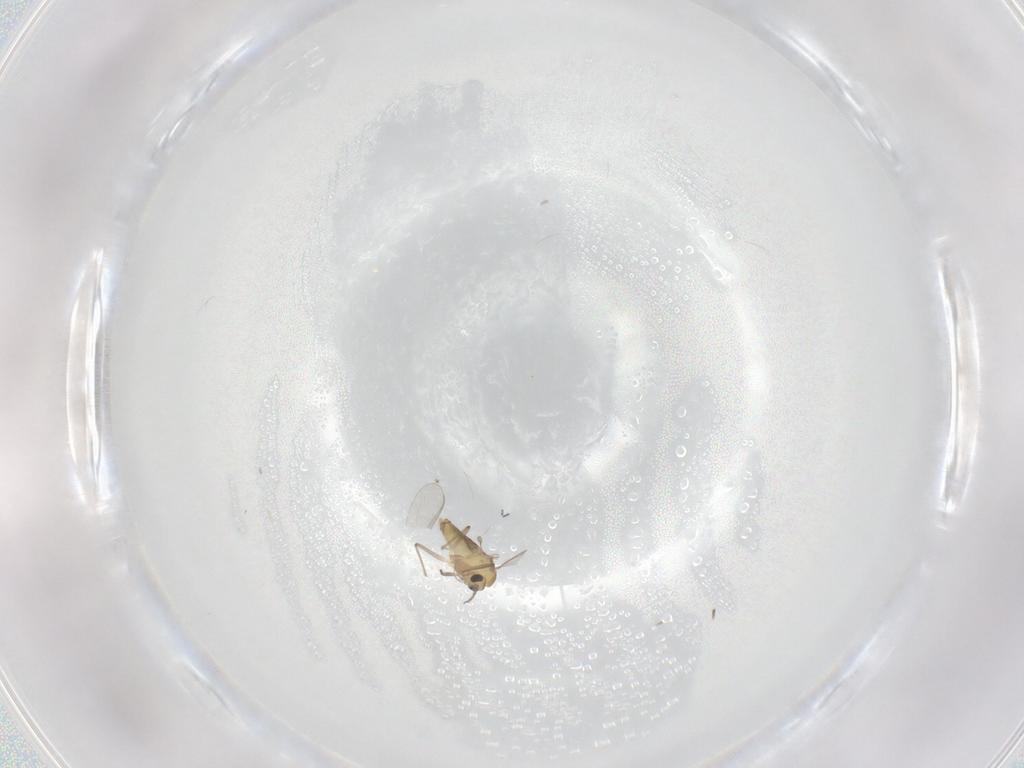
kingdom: Animalia
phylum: Arthropoda
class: Insecta
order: Diptera
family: Chironomidae
